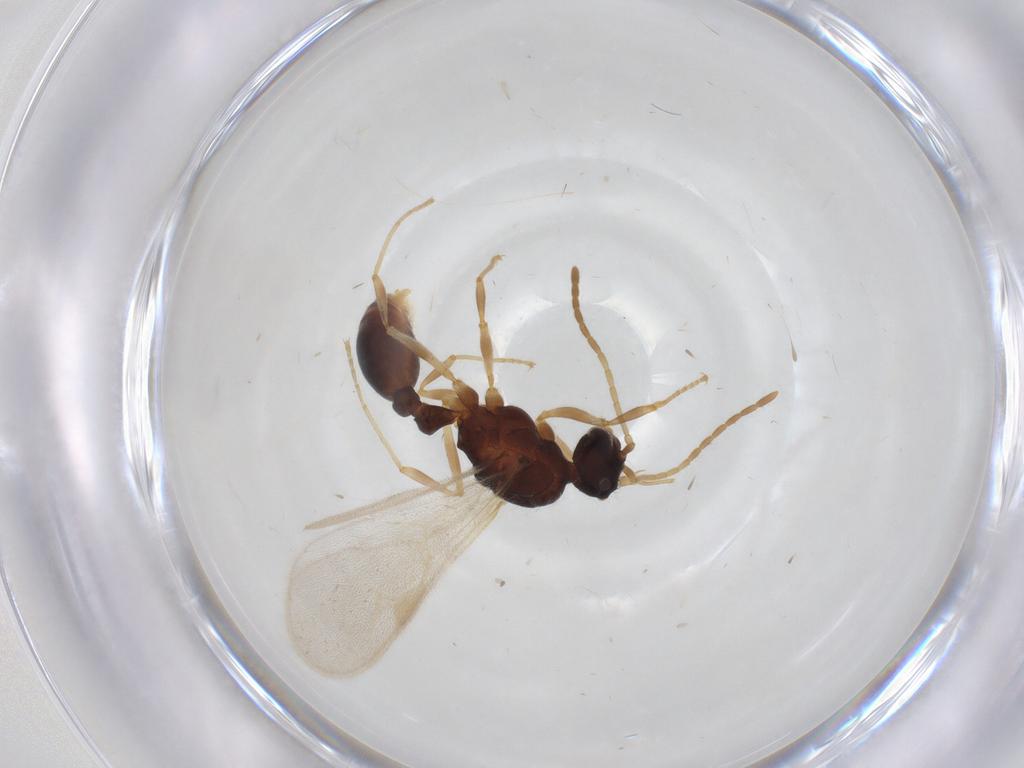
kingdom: Animalia
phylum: Arthropoda
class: Insecta
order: Hymenoptera
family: Formicidae
